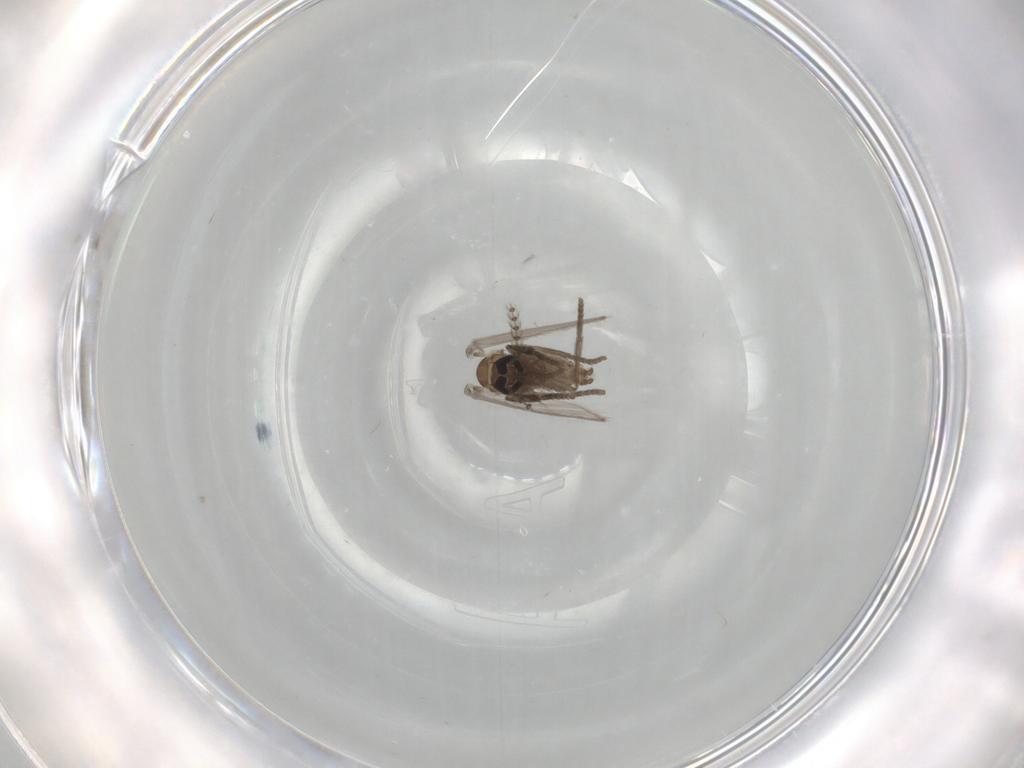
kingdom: Animalia
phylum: Arthropoda
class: Insecta
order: Diptera
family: Psychodidae
